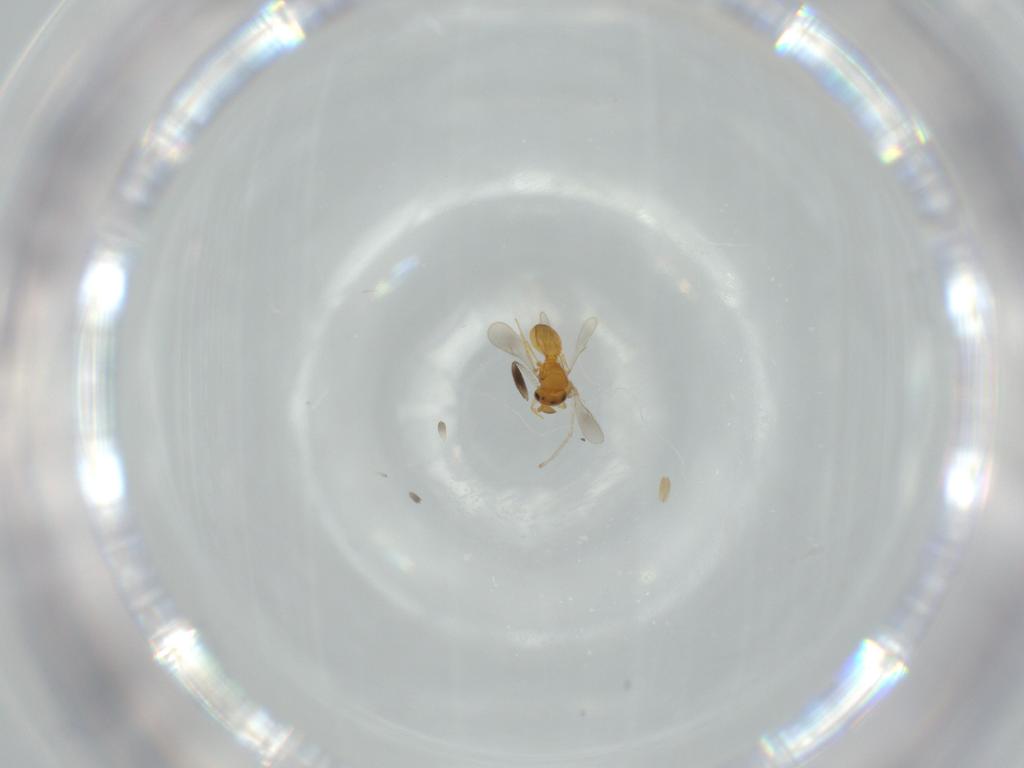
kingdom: Animalia
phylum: Arthropoda
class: Insecta
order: Hymenoptera
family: Scelionidae
